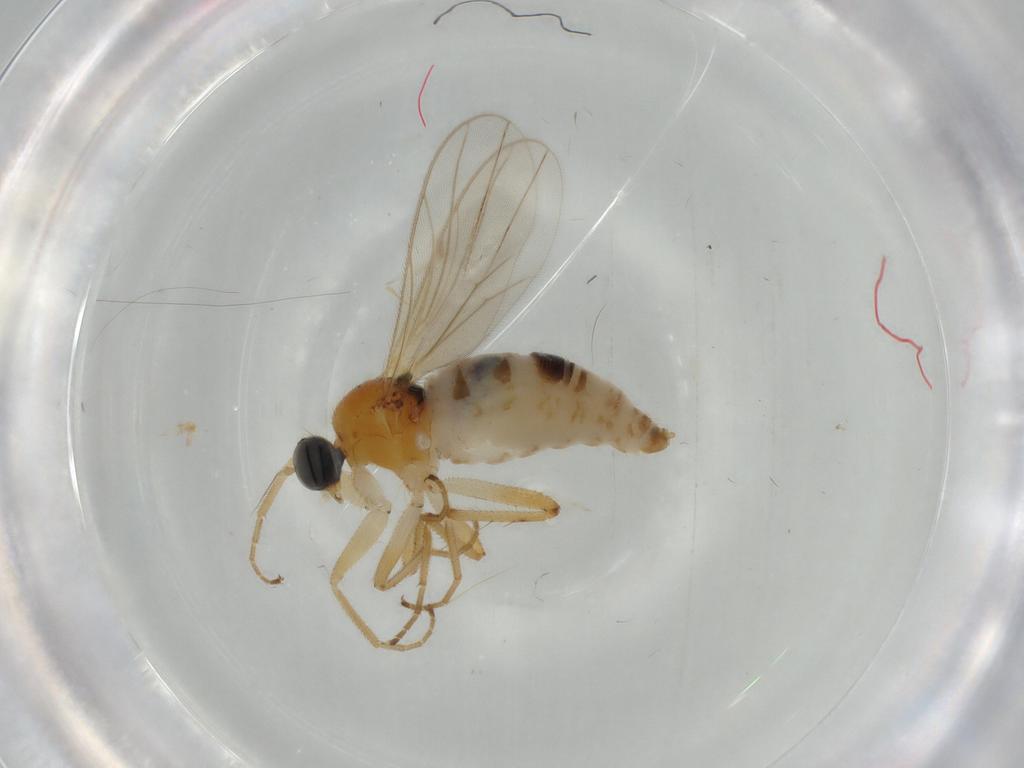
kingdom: Animalia
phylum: Arthropoda
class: Insecta
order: Diptera
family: Hybotidae
